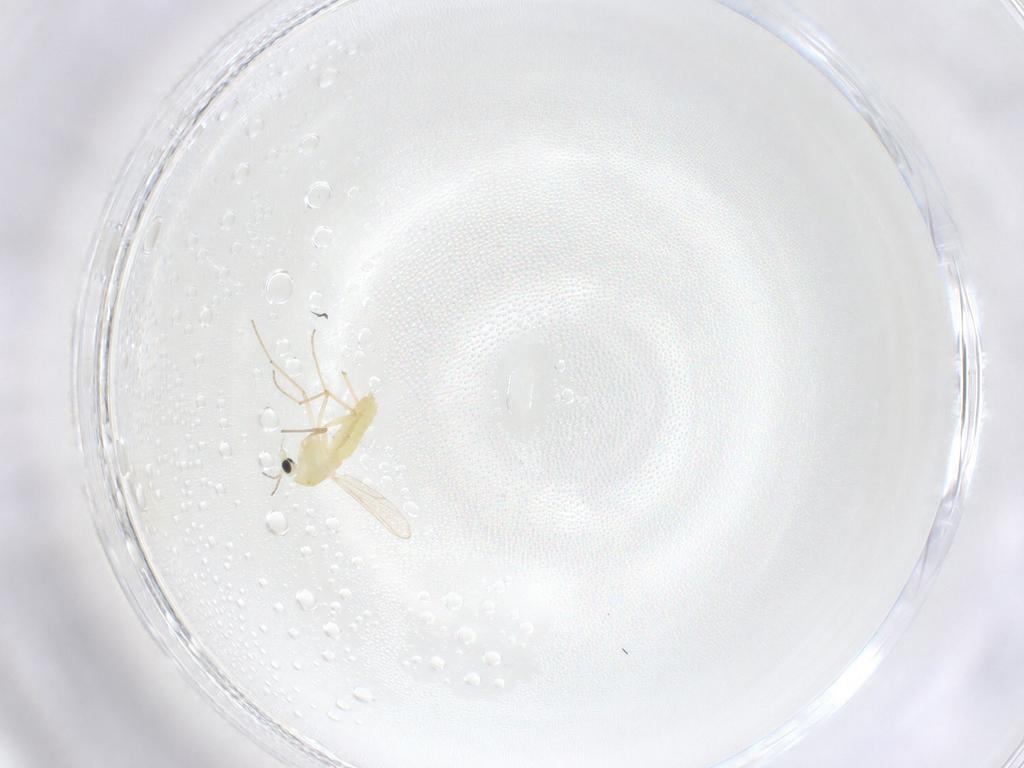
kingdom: Animalia
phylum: Arthropoda
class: Insecta
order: Diptera
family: Chironomidae
